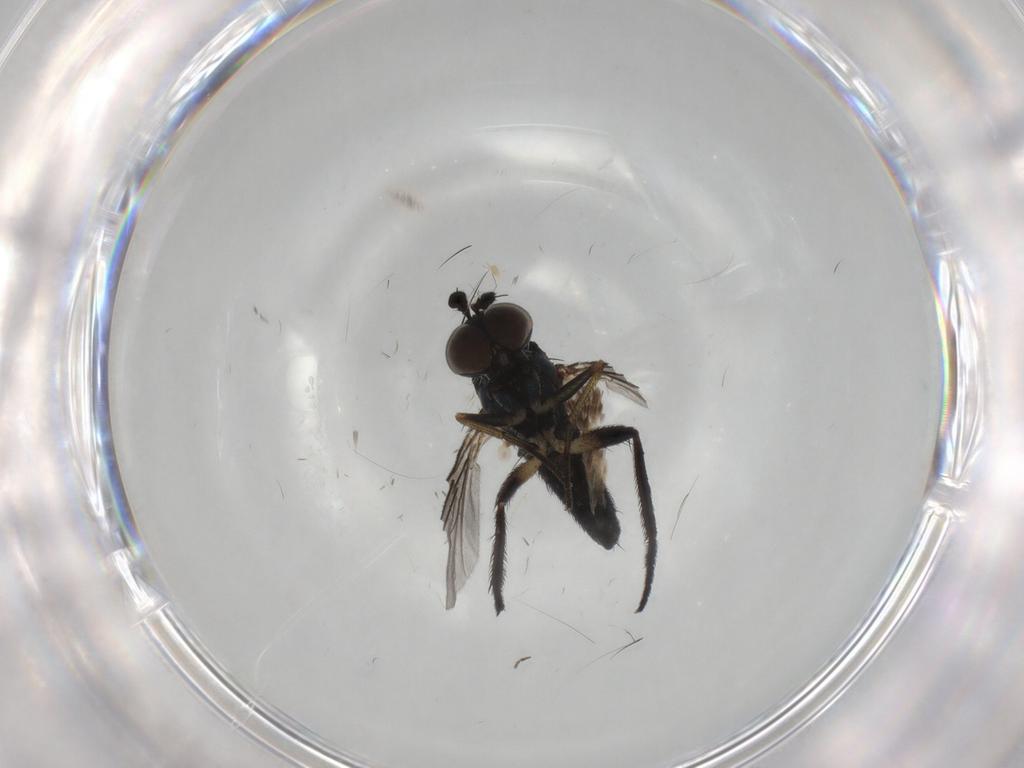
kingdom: Animalia
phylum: Arthropoda
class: Insecta
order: Diptera
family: Dolichopodidae
